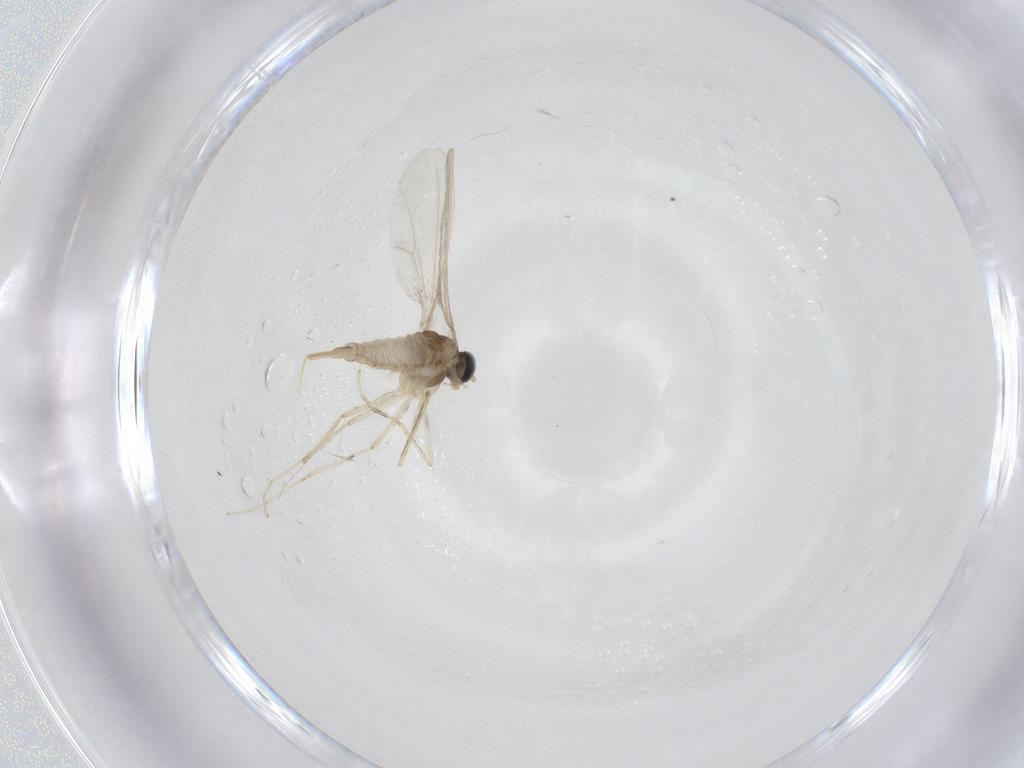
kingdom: Animalia
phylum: Arthropoda
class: Insecta
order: Diptera
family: Cecidomyiidae
